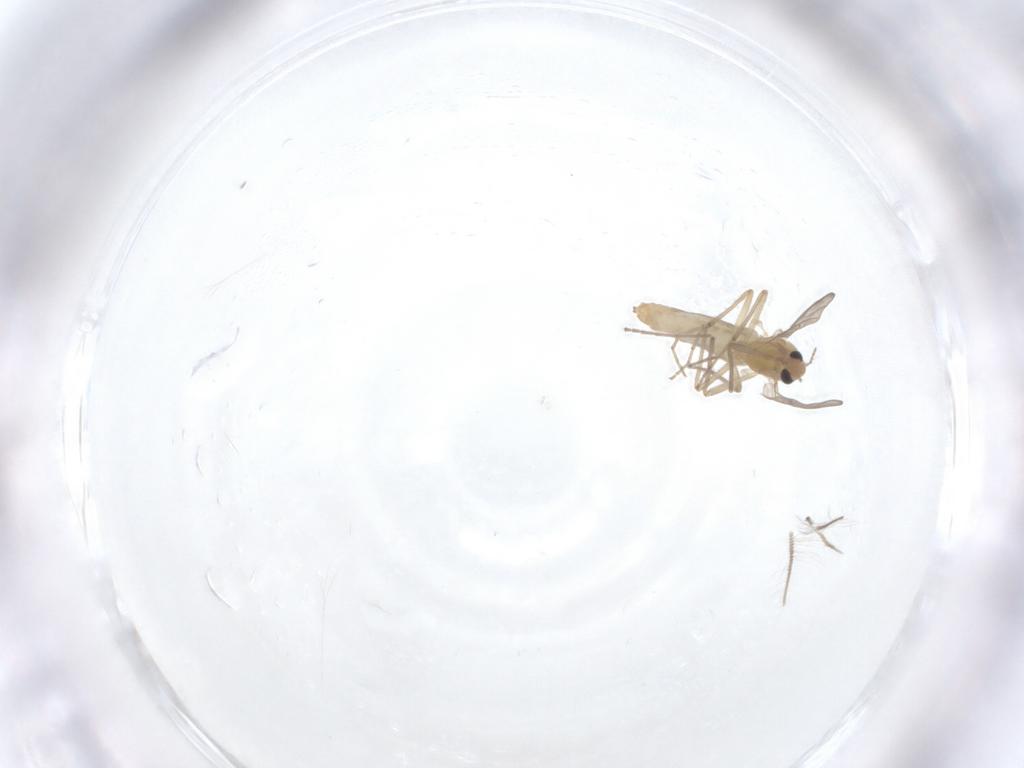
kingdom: Animalia
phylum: Arthropoda
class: Insecta
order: Diptera
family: Chironomidae
